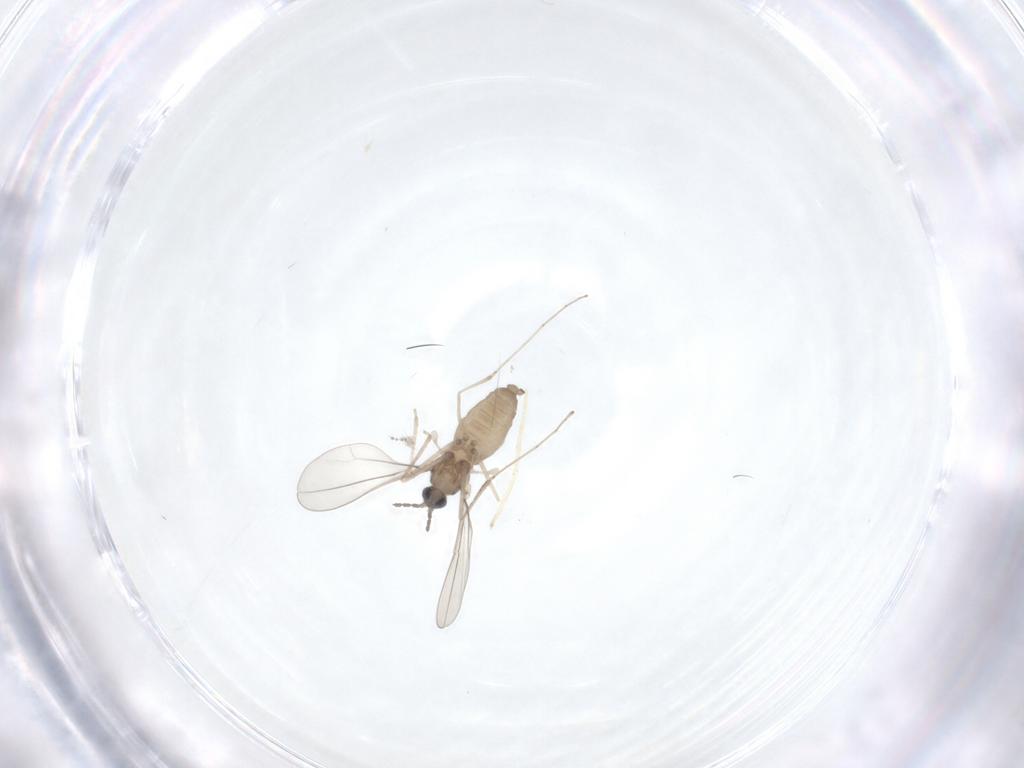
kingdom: Animalia
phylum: Arthropoda
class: Insecta
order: Diptera
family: Cecidomyiidae
